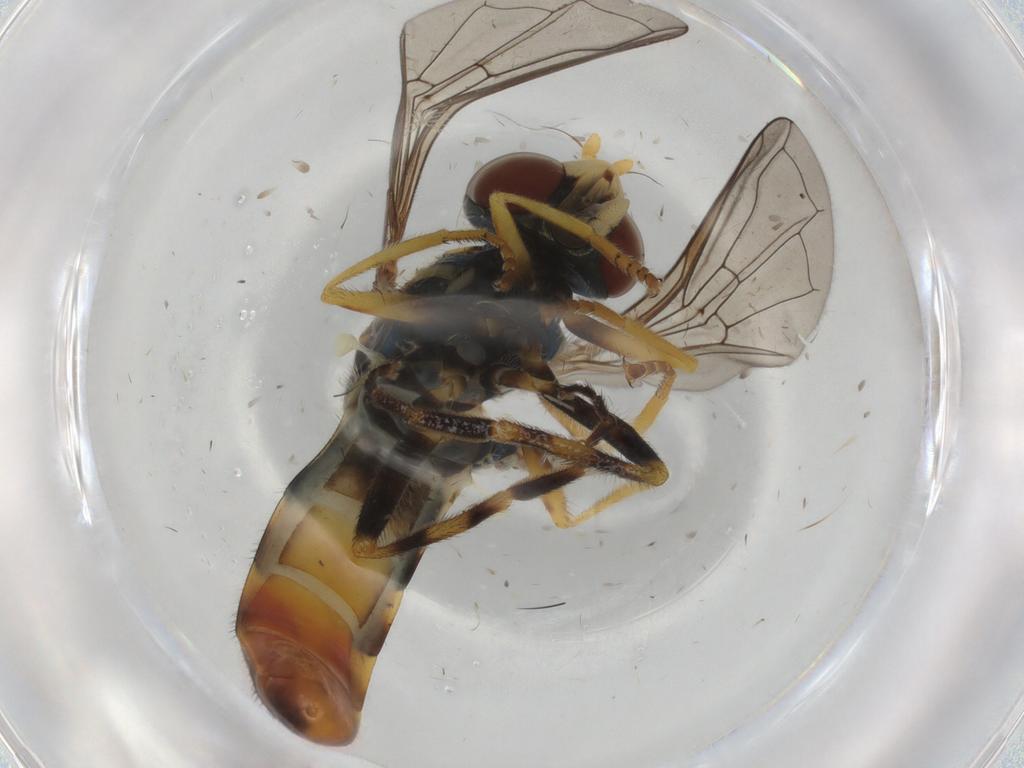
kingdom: Animalia
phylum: Arthropoda
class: Insecta
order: Diptera
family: Syrphidae
